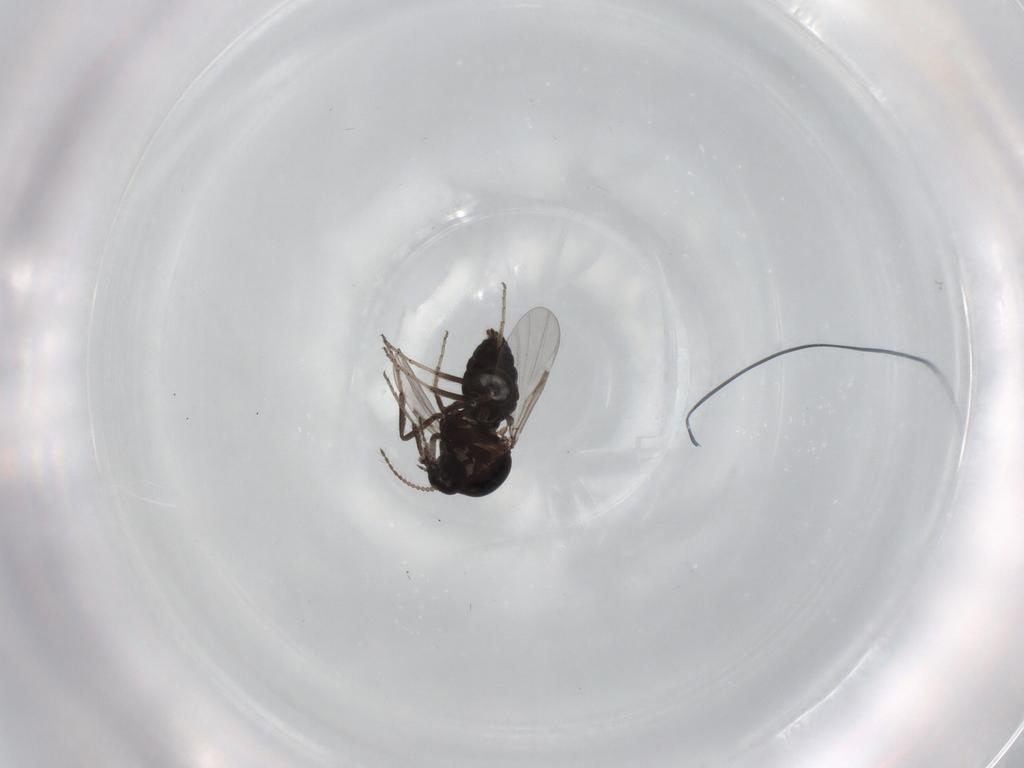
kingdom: Animalia
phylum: Arthropoda
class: Insecta
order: Diptera
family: Ceratopogonidae
